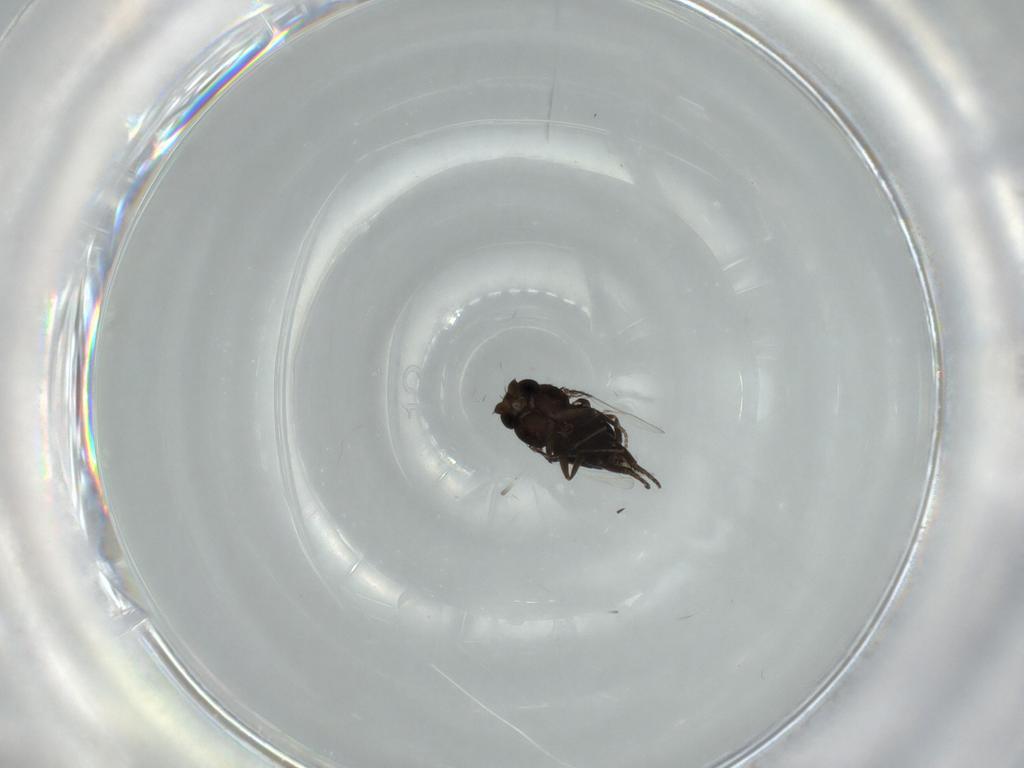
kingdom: Animalia
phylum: Arthropoda
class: Insecta
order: Diptera
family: Phoridae
